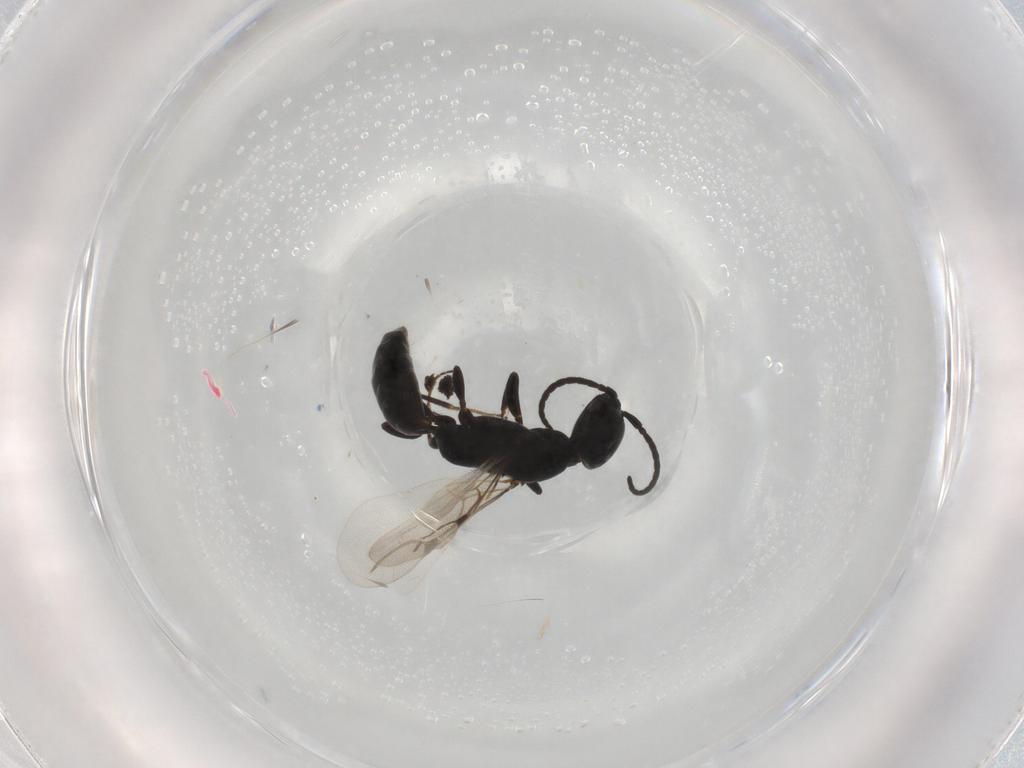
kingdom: Animalia
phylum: Arthropoda
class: Insecta
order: Hymenoptera
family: Bethylidae
